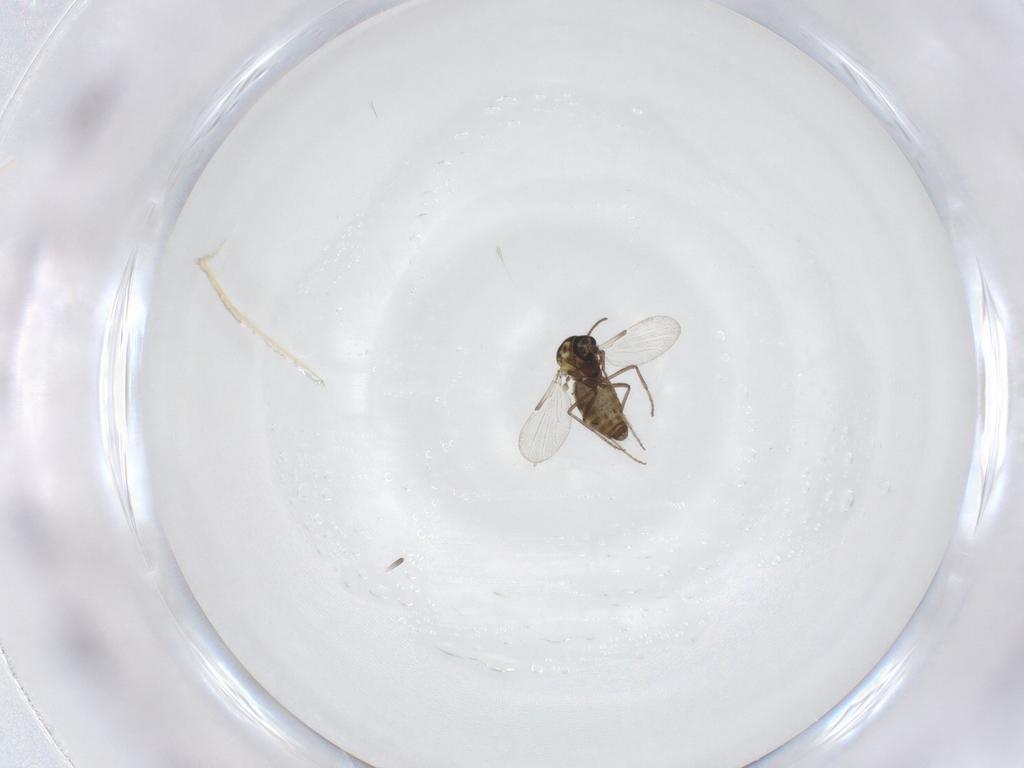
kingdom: Animalia
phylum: Arthropoda
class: Insecta
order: Diptera
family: Ceratopogonidae
